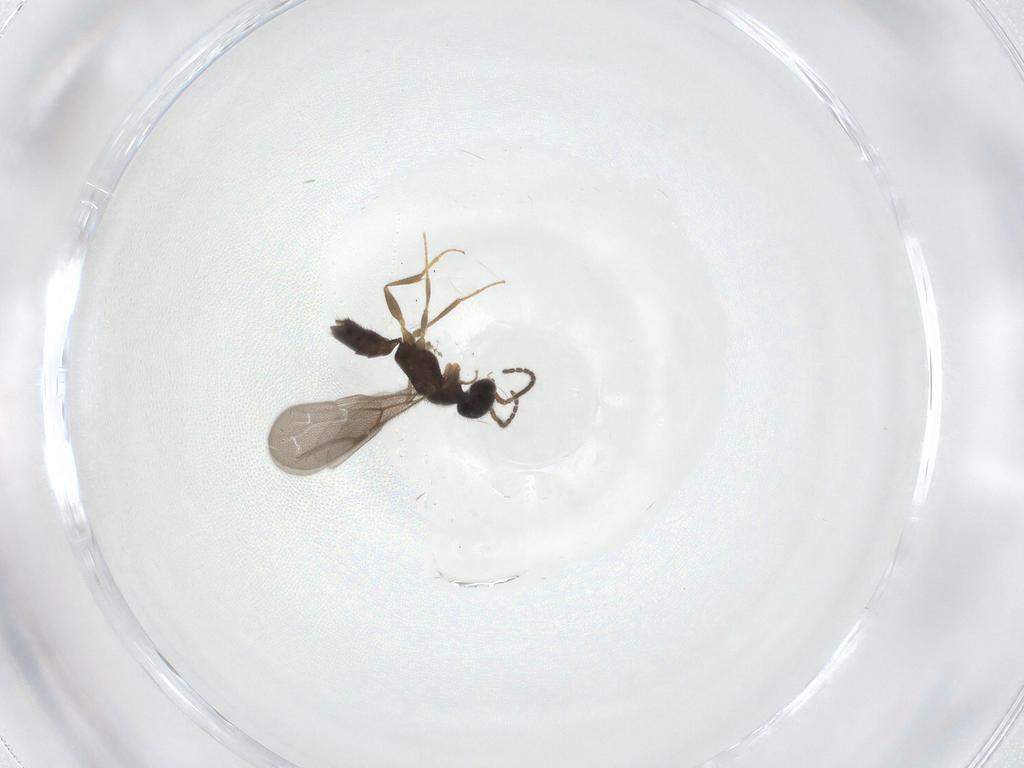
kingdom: Animalia
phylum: Arthropoda
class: Insecta
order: Hymenoptera
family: Bethylidae
